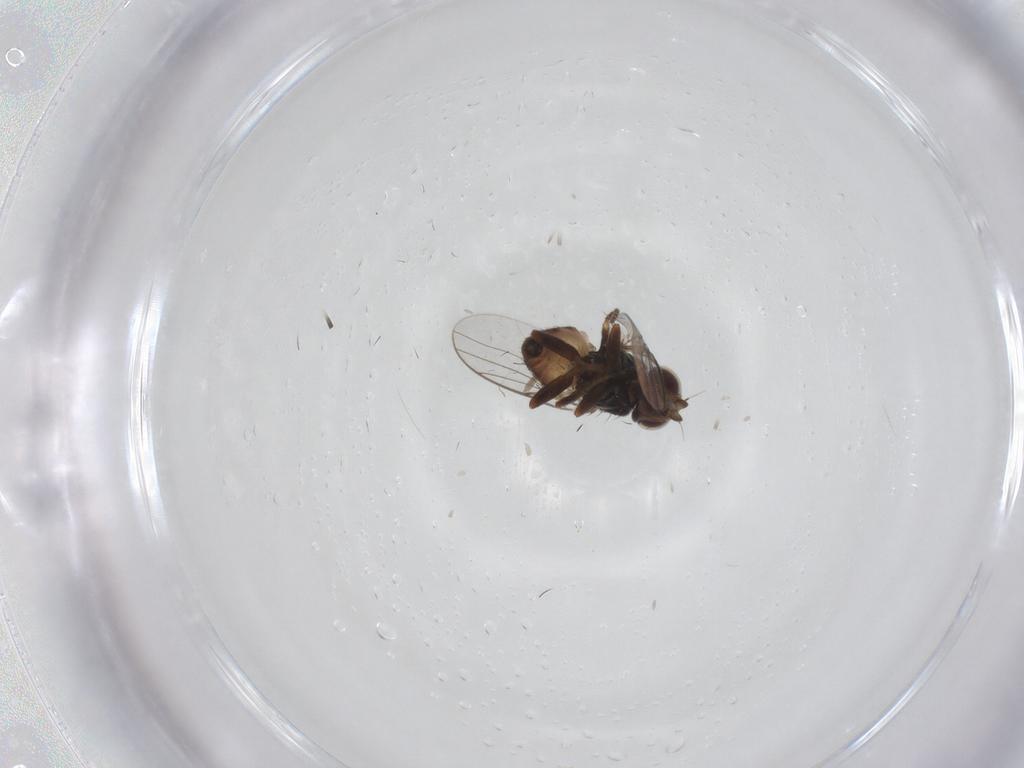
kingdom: Animalia
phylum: Arthropoda
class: Insecta
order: Diptera
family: Chloropidae
